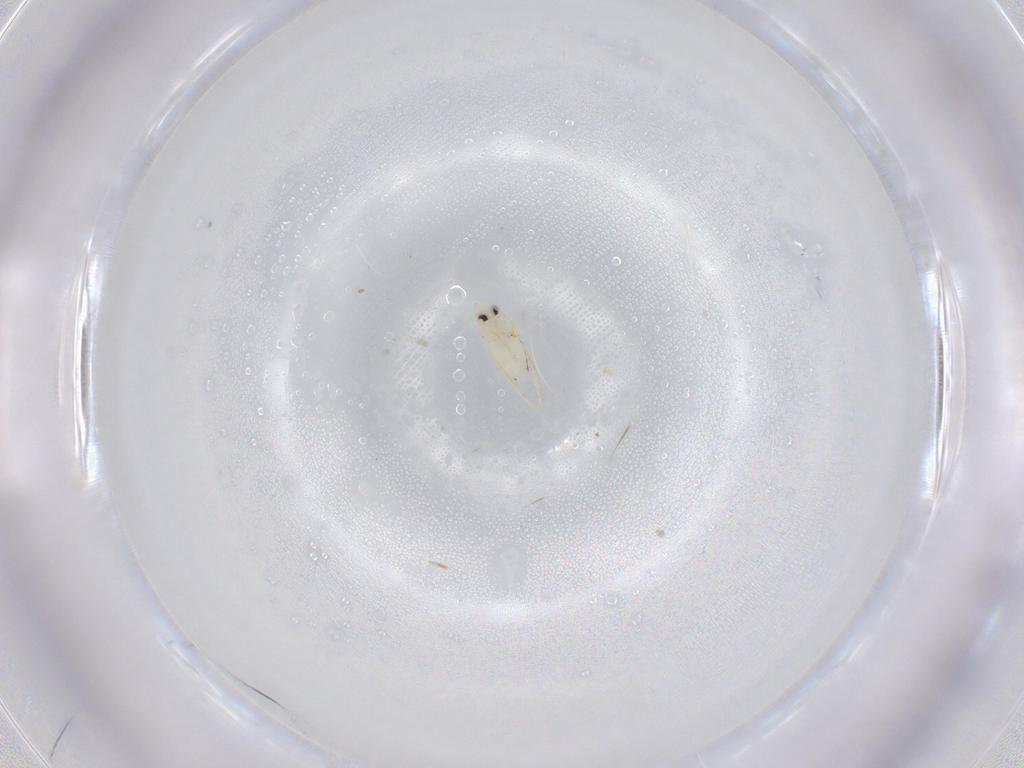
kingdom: Animalia
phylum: Arthropoda
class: Insecta
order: Hemiptera
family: Aleyrodidae
